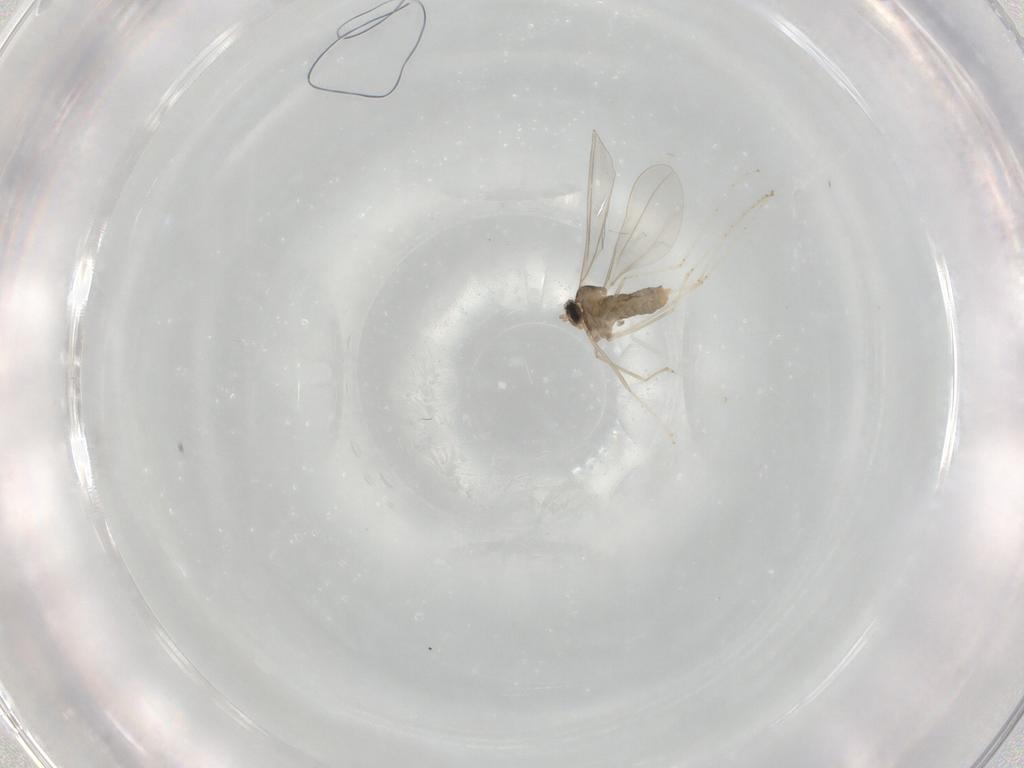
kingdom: Animalia
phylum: Arthropoda
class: Insecta
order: Diptera
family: Cecidomyiidae
